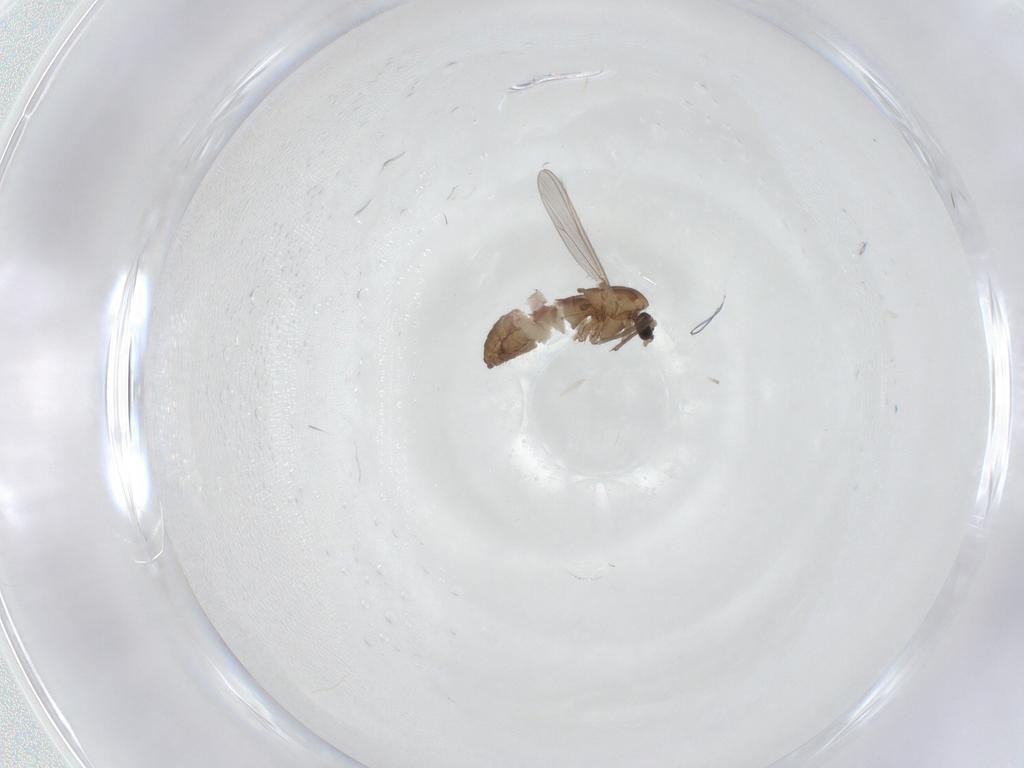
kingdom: Animalia
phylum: Arthropoda
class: Insecta
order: Diptera
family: Chironomidae
